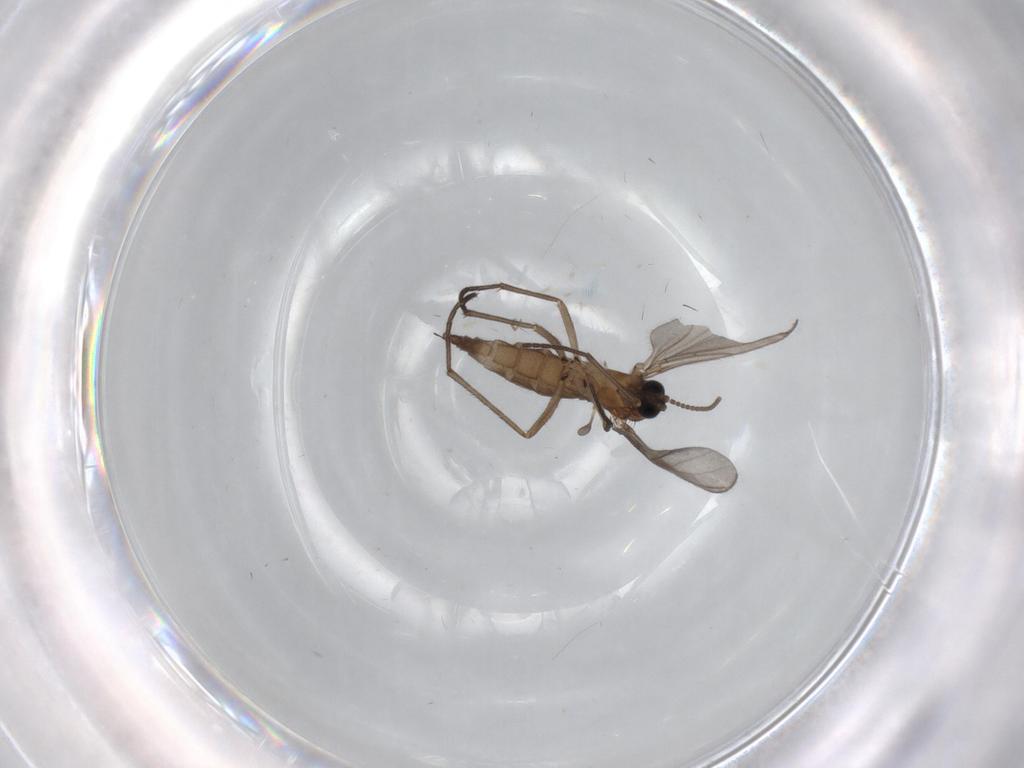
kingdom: Animalia
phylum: Arthropoda
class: Insecta
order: Diptera
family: Sciaridae
